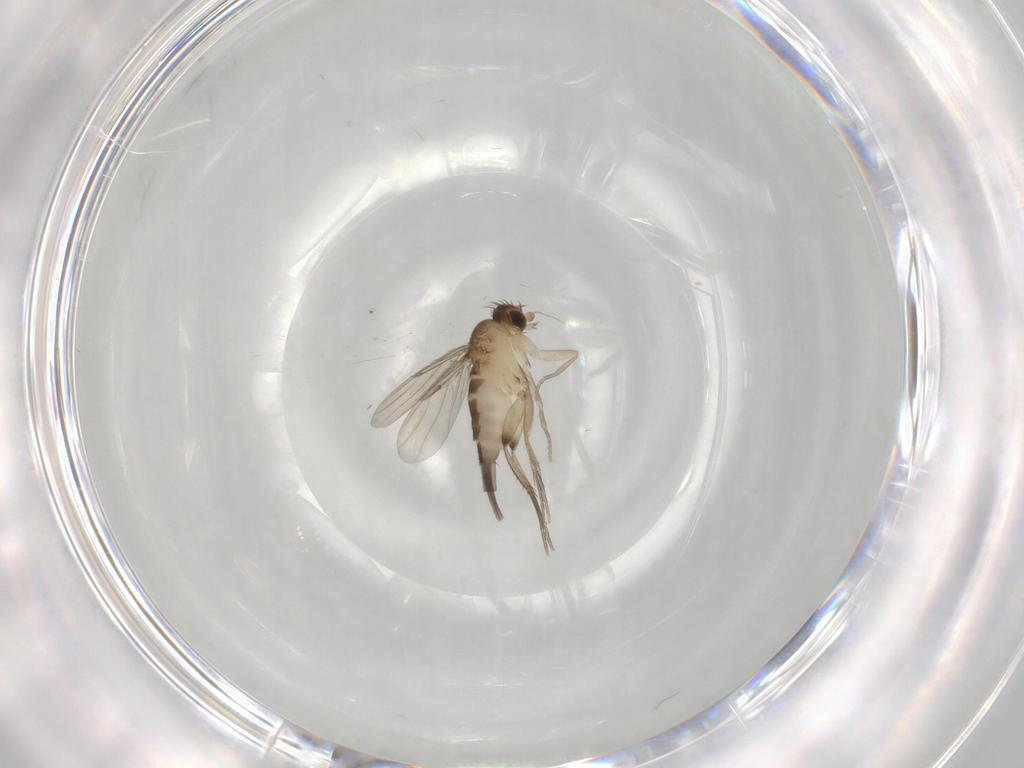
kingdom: Animalia
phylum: Arthropoda
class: Insecta
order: Diptera
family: Phoridae
